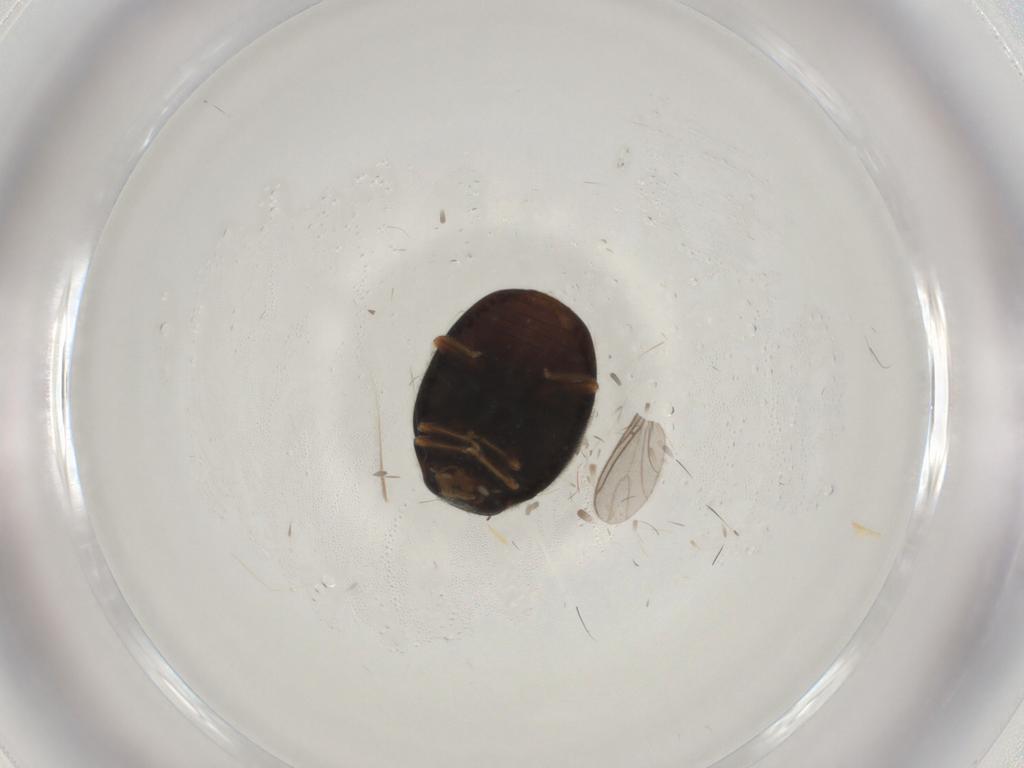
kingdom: Animalia
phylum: Arthropoda
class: Insecta
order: Coleoptera
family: Coccinellidae
